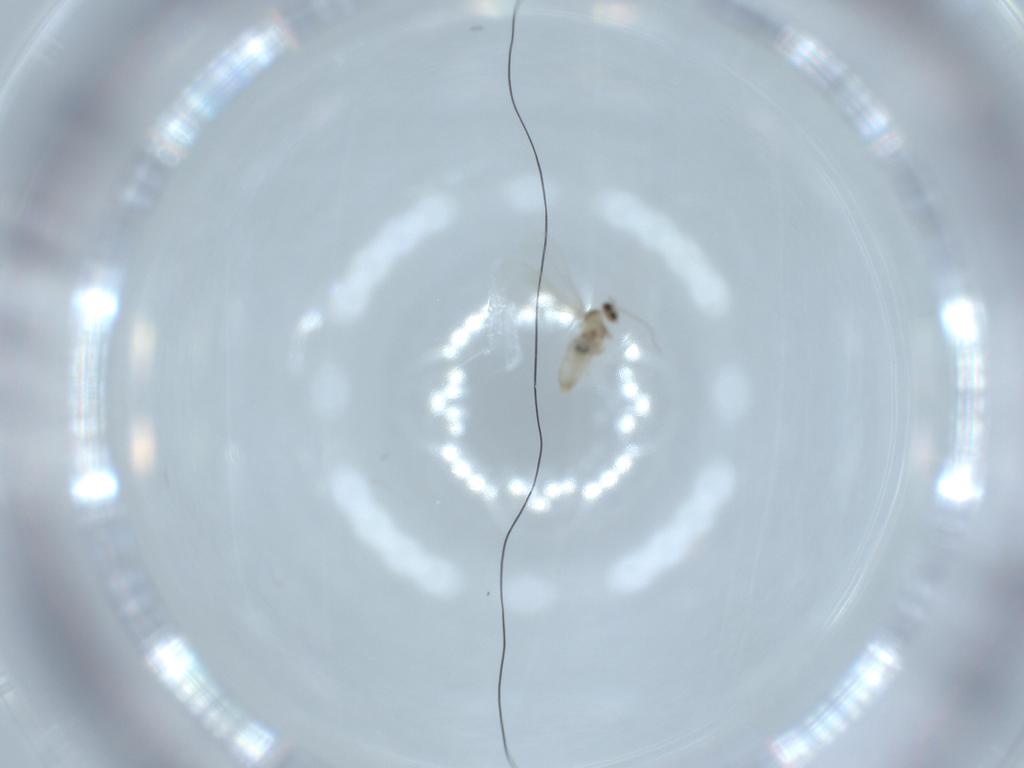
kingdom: Animalia
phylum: Arthropoda
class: Insecta
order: Diptera
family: Cecidomyiidae
